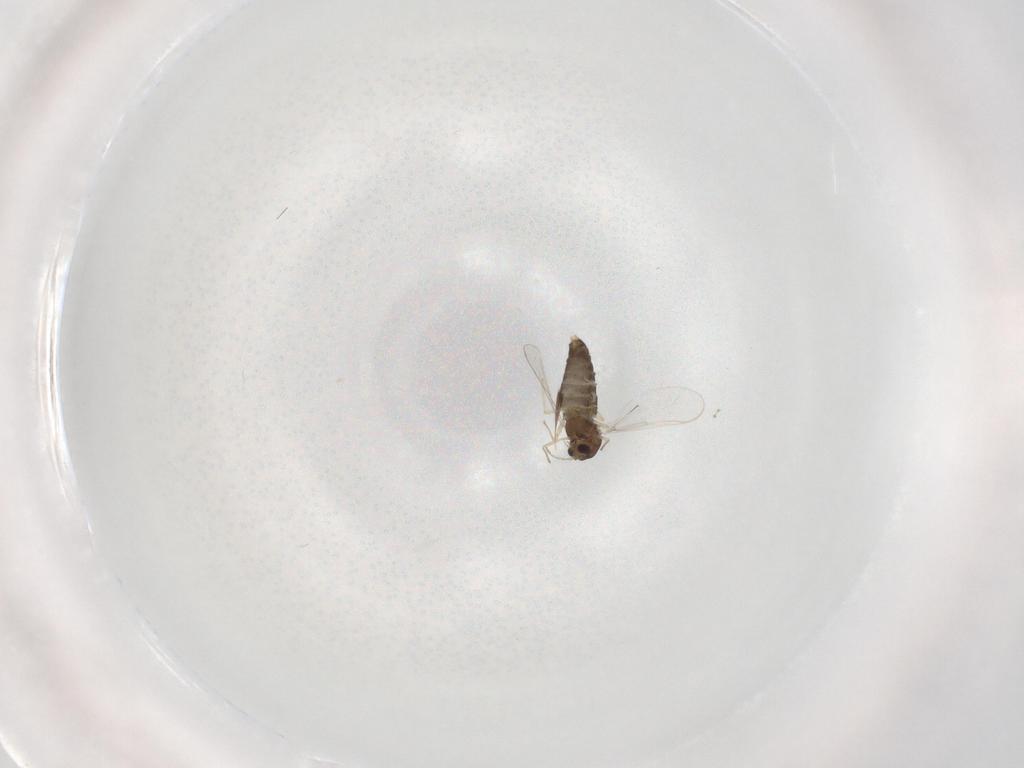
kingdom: Animalia
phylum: Arthropoda
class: Insecta
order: Diptera
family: Chironomidae
